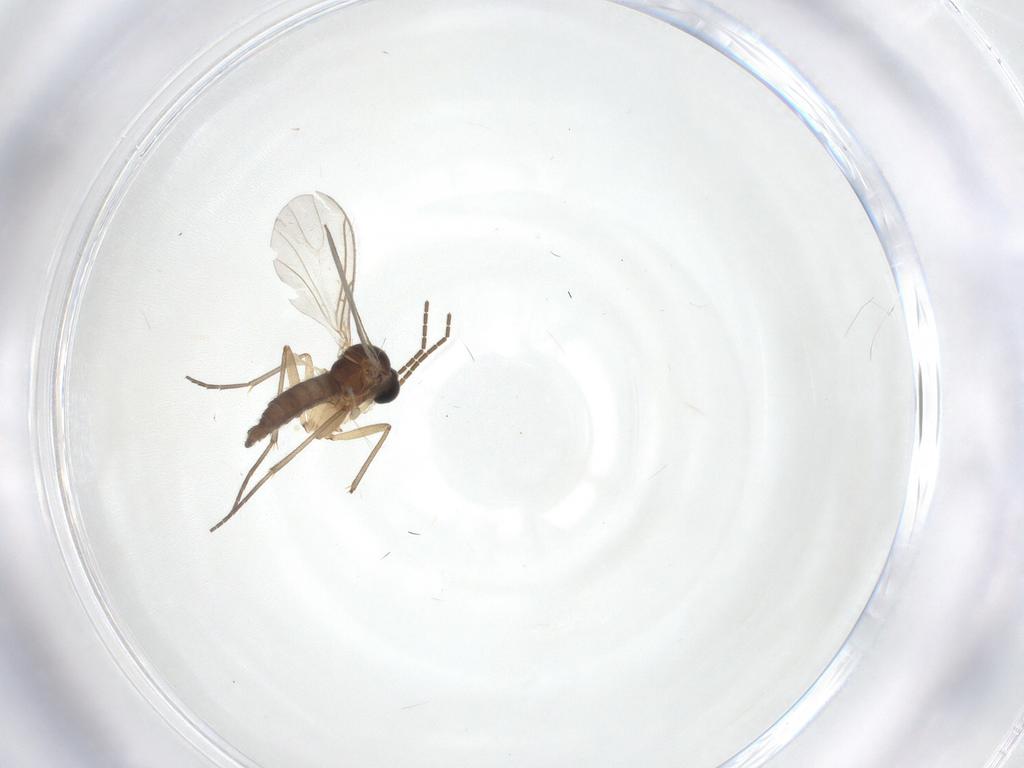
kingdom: Animalia
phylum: Arthropoda
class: Insecta
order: Diptera
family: Sciaridae
